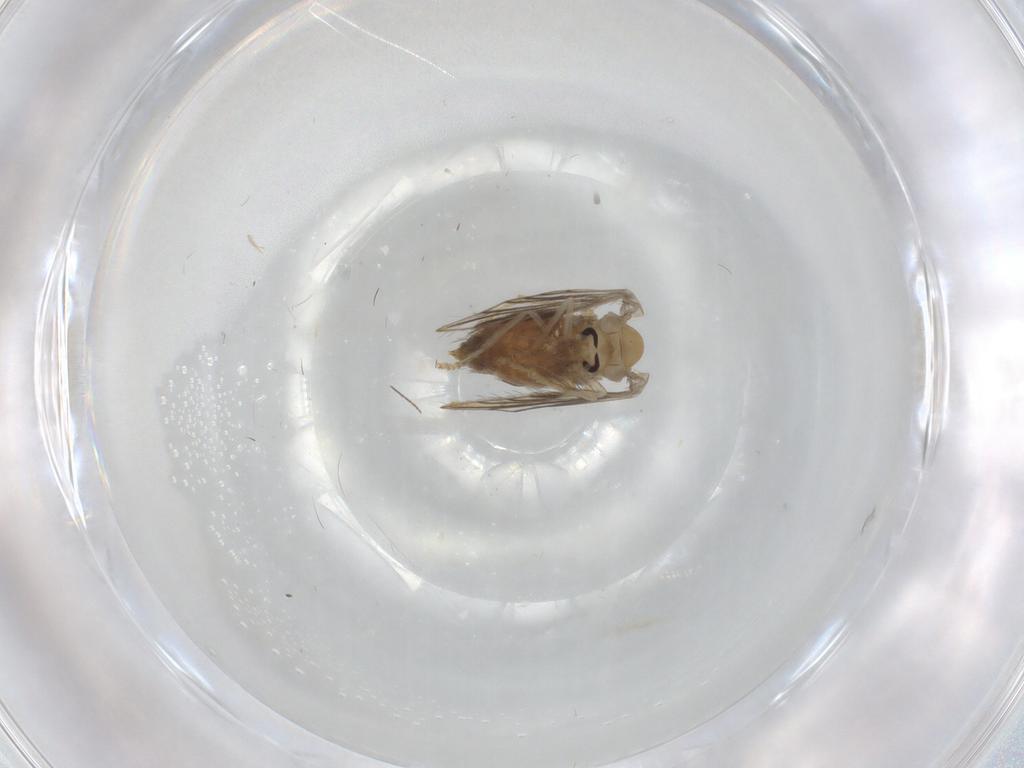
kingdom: Animalia
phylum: Arthropoda
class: Insecta
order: Diptera
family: Psychodidae
